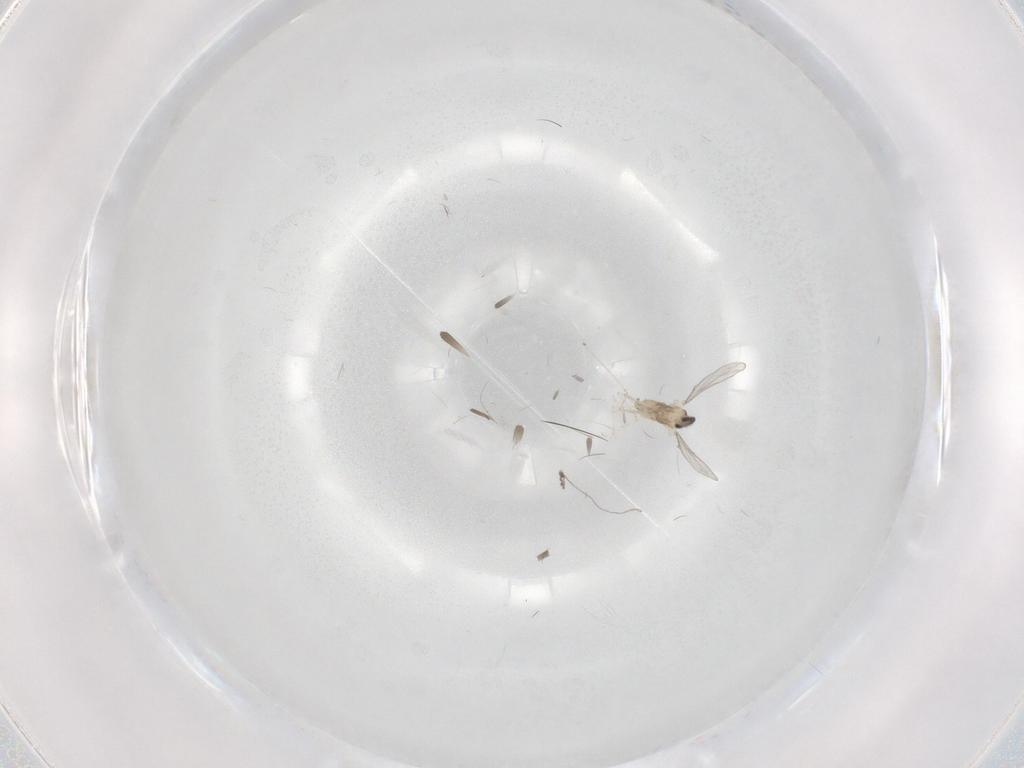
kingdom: Animalia
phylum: Arthropoda
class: Insecta
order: Diptera
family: Cecidomyiidae
